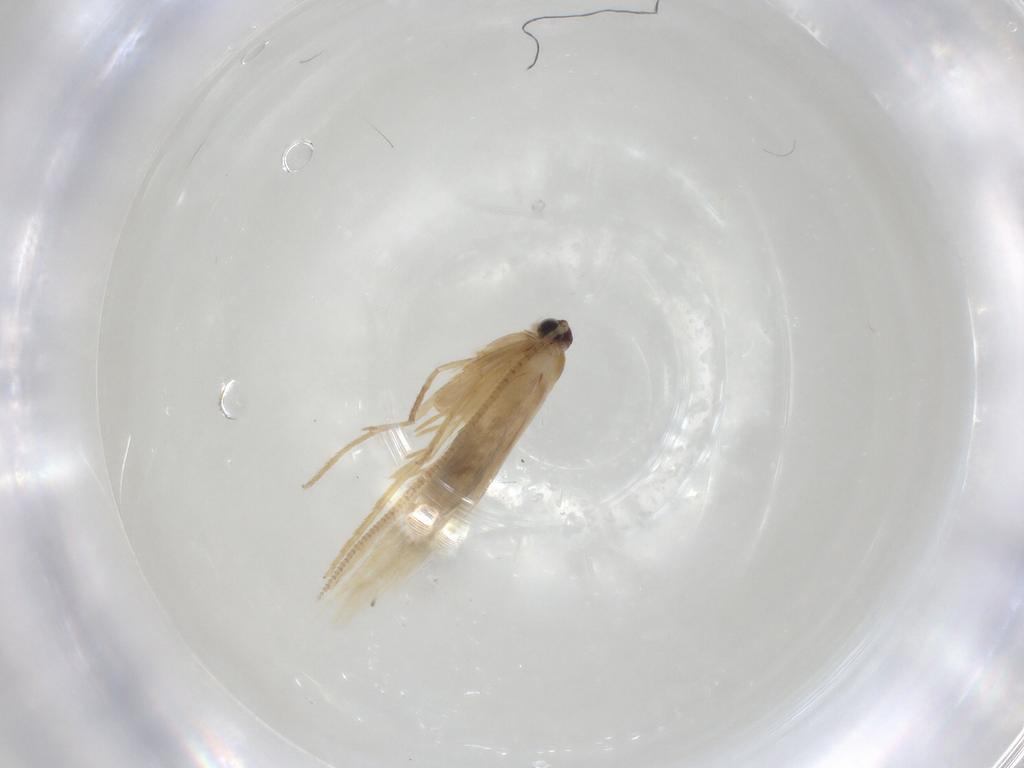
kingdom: Animalia
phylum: Arthropoda
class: Insecta
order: Lepidoptera
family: Tineidae
